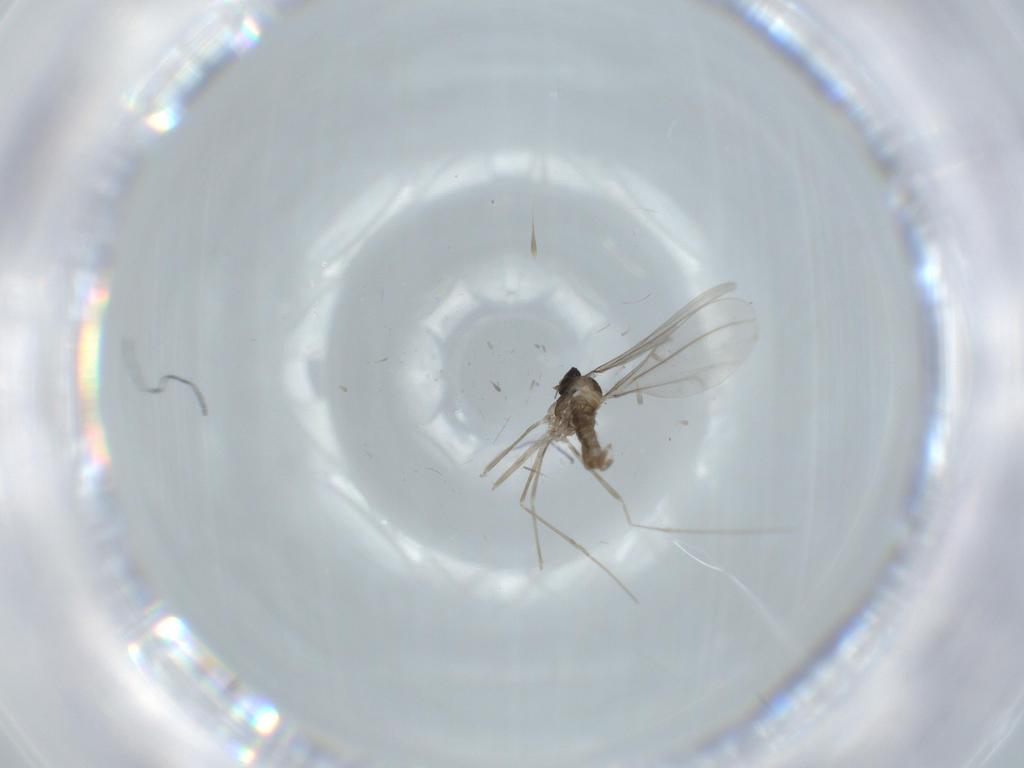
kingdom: Animalia
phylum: Arthropoda
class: Insecta
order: Diptera
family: Cecidomyiidae
